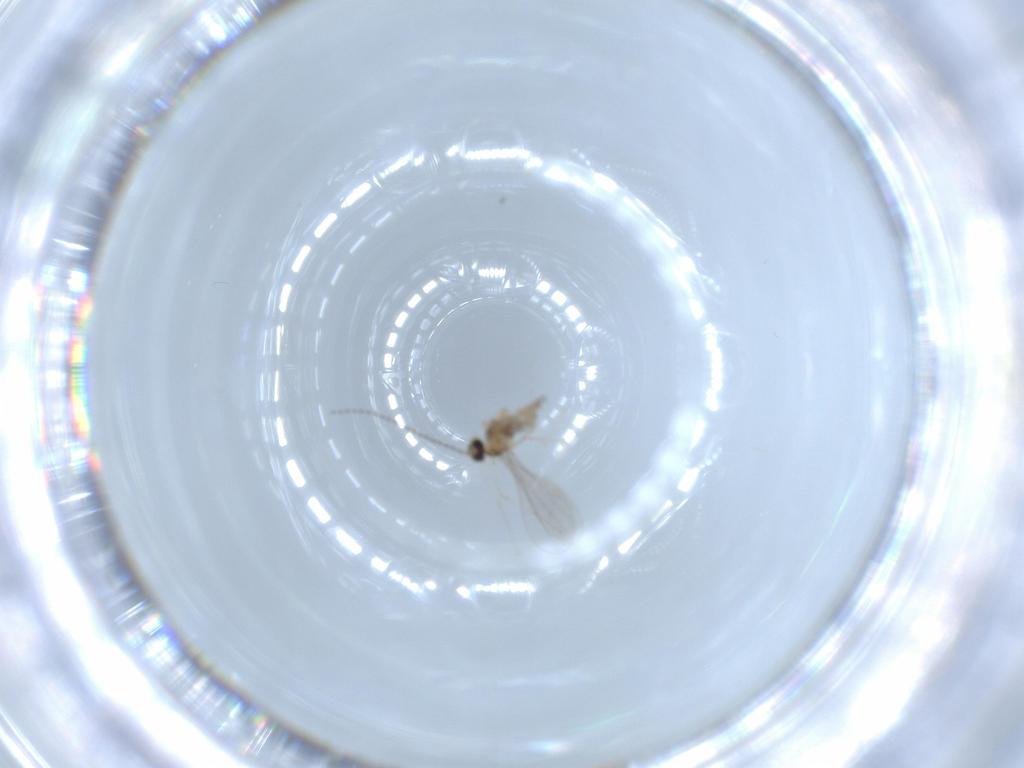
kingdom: Animalia
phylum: Arthropoda
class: Insecta
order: Diptera
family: Cecidomyiidae
